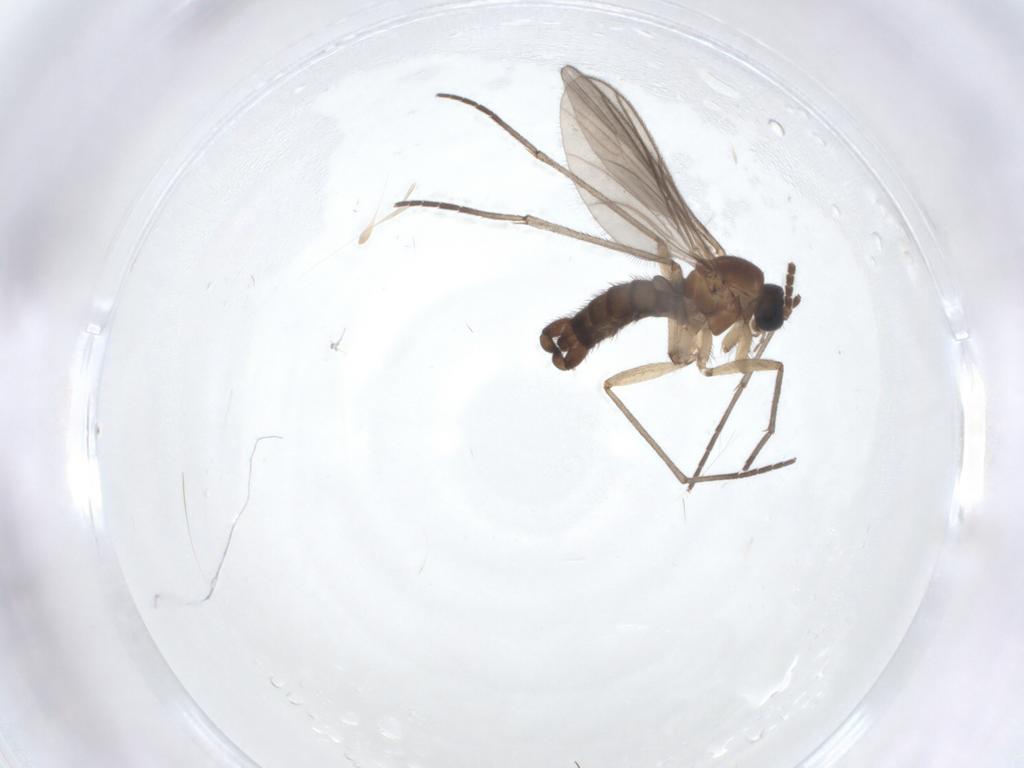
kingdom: Animalia
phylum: Arthropoda
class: Insecta
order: Diptera
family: Sciaridae
